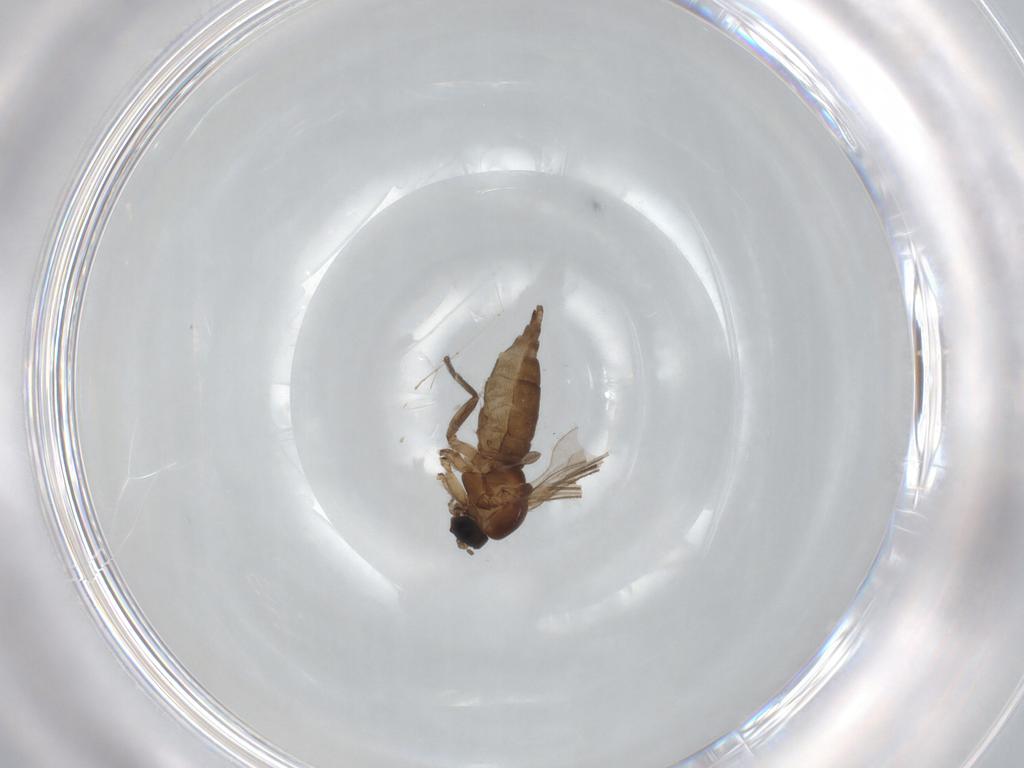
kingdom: Animalia
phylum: Arthropoda
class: Insecta
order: Diptera
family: Sciaridae
